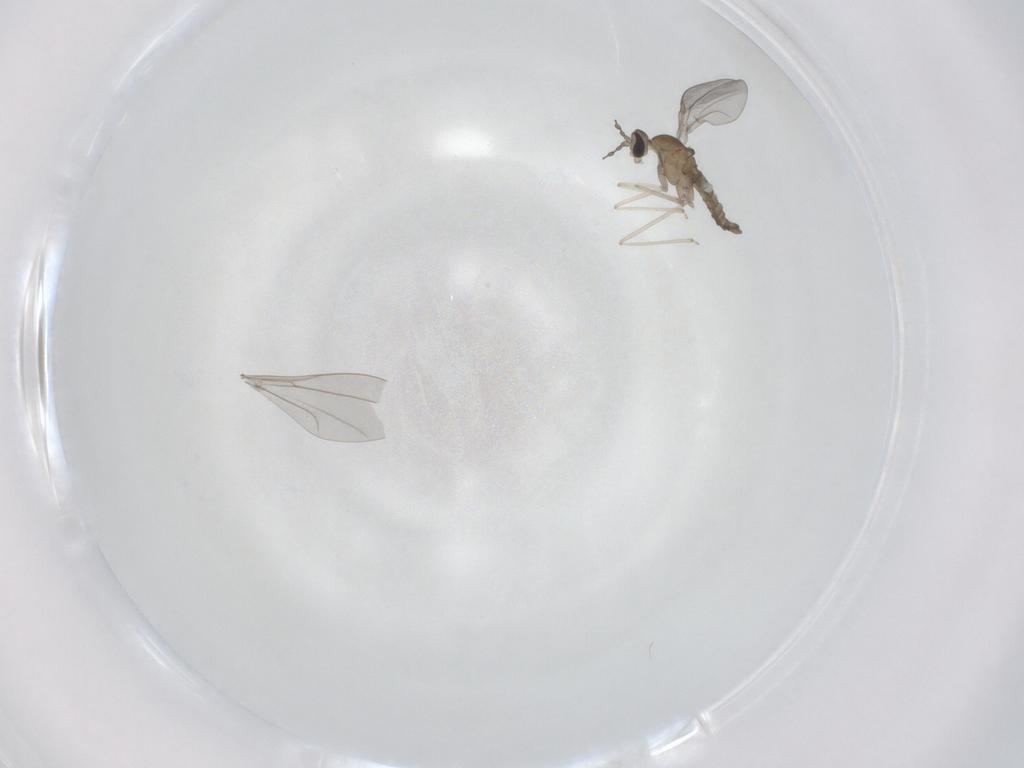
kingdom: Animalia
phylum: Arthropoda
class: Insecta
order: Diptera
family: Cecidomyiidae
